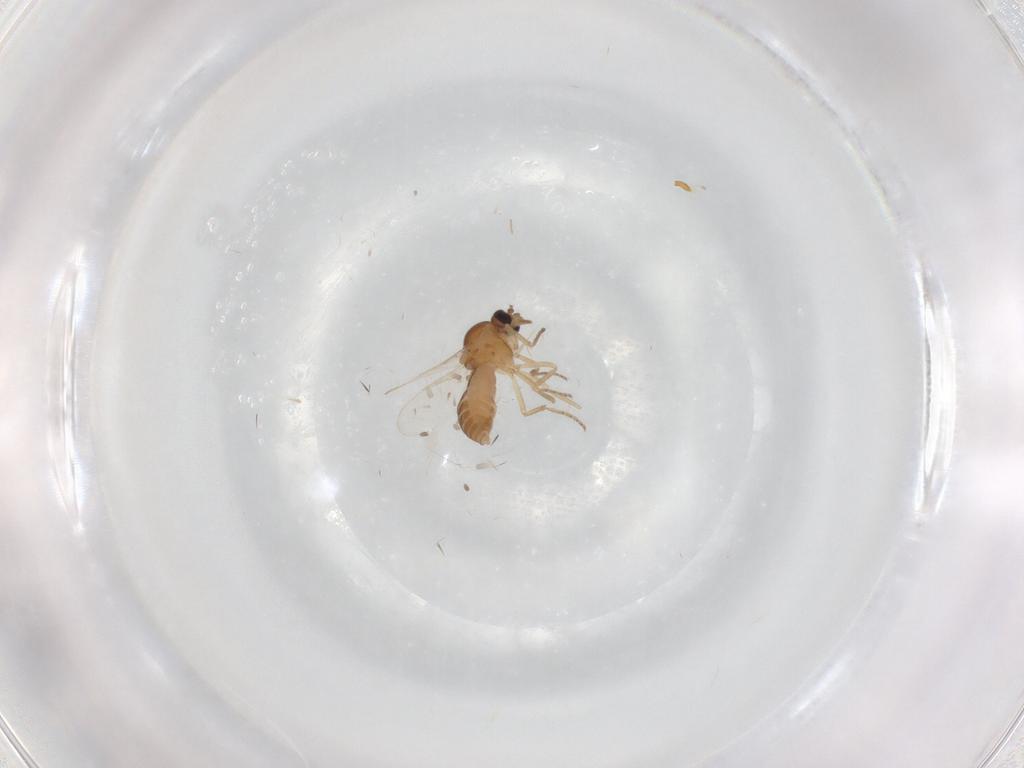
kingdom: Animalia
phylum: Arthropoda
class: Insecta
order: Diptera
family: Ceratopogonidae
